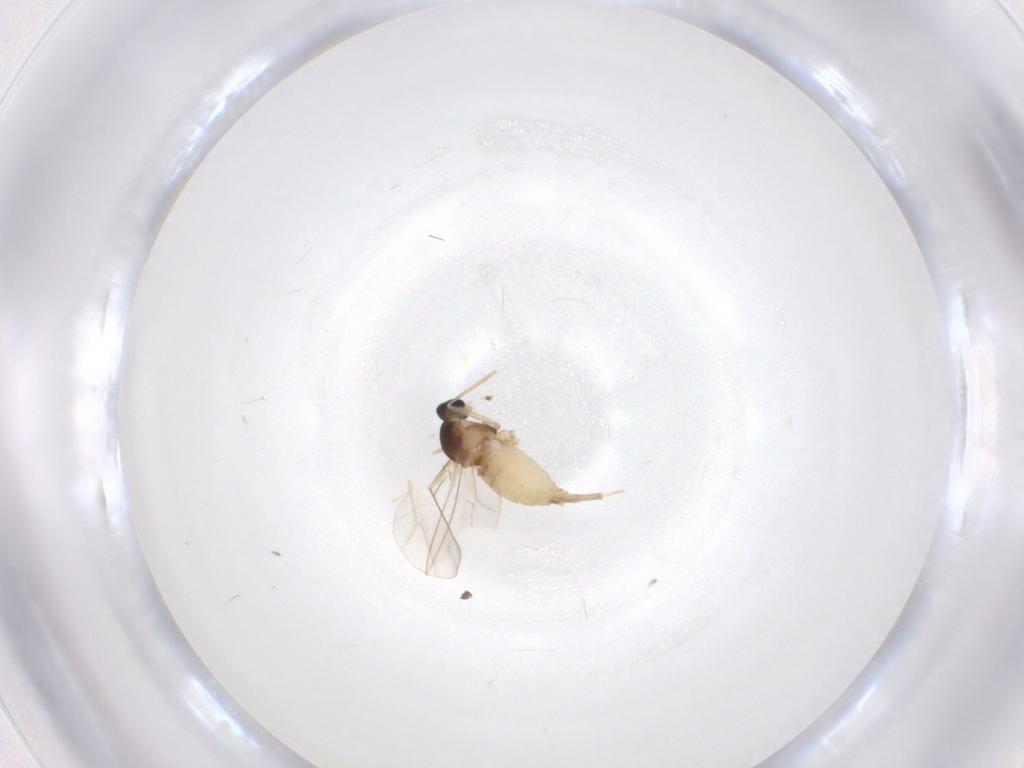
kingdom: Animalia
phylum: Arthropoda
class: Insecta
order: Diptera
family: Cecidomyiidae
